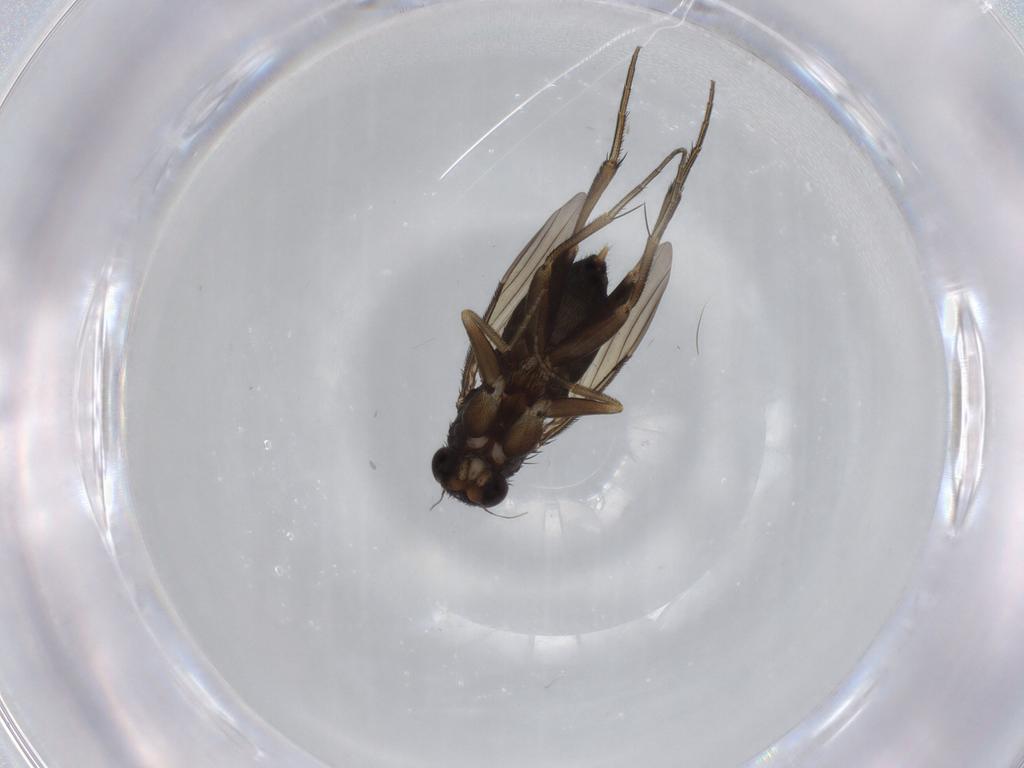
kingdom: Animalia
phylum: Arthropoda
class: Insecta
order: Diptera
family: Phoridae
